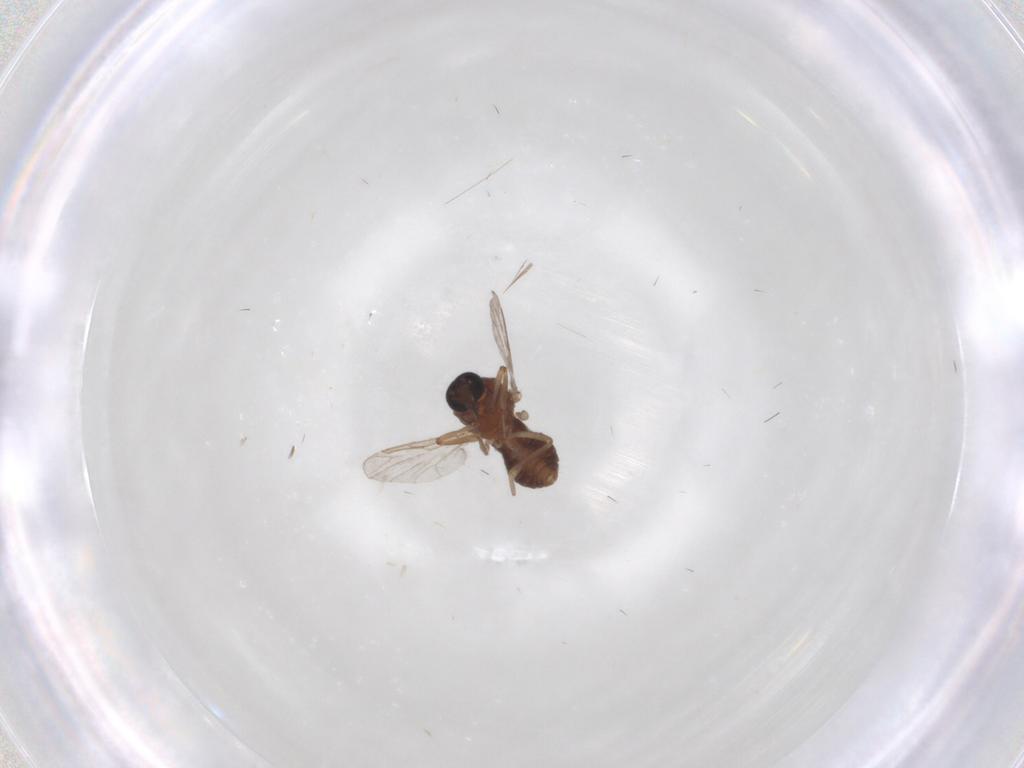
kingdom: Animalia
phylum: Arthropoda
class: Insecta
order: Diptera
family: Ceratopogonidae
